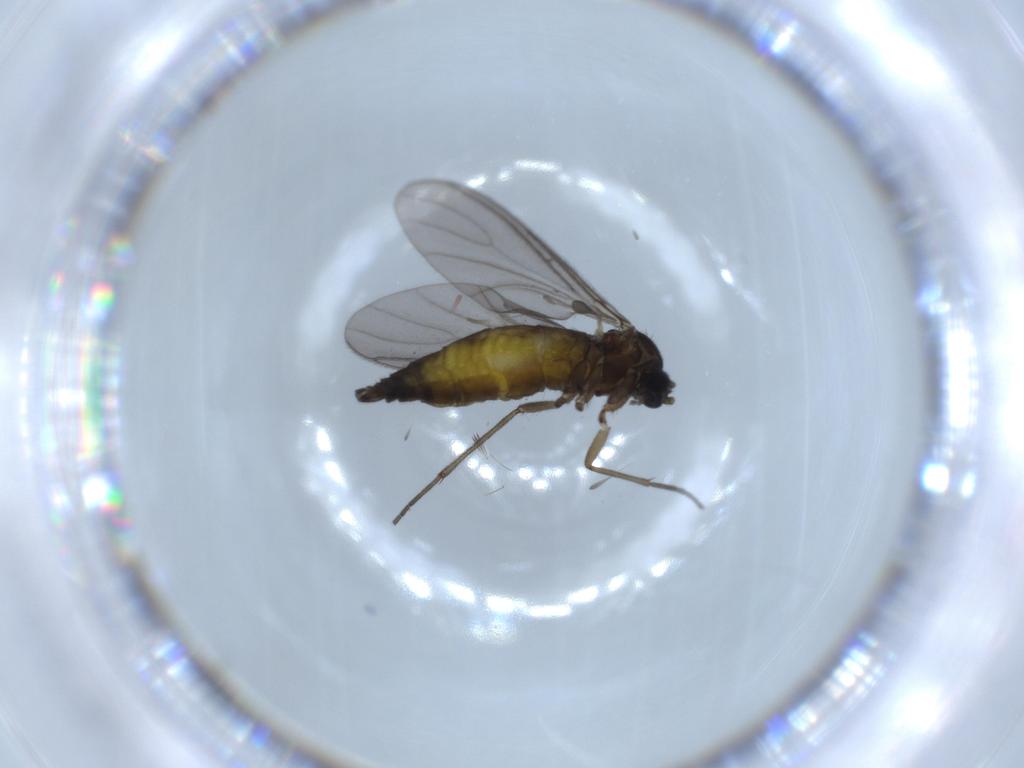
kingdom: Animalia
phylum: Arthropoda
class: Insecta
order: Diptera
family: Sciaridae
